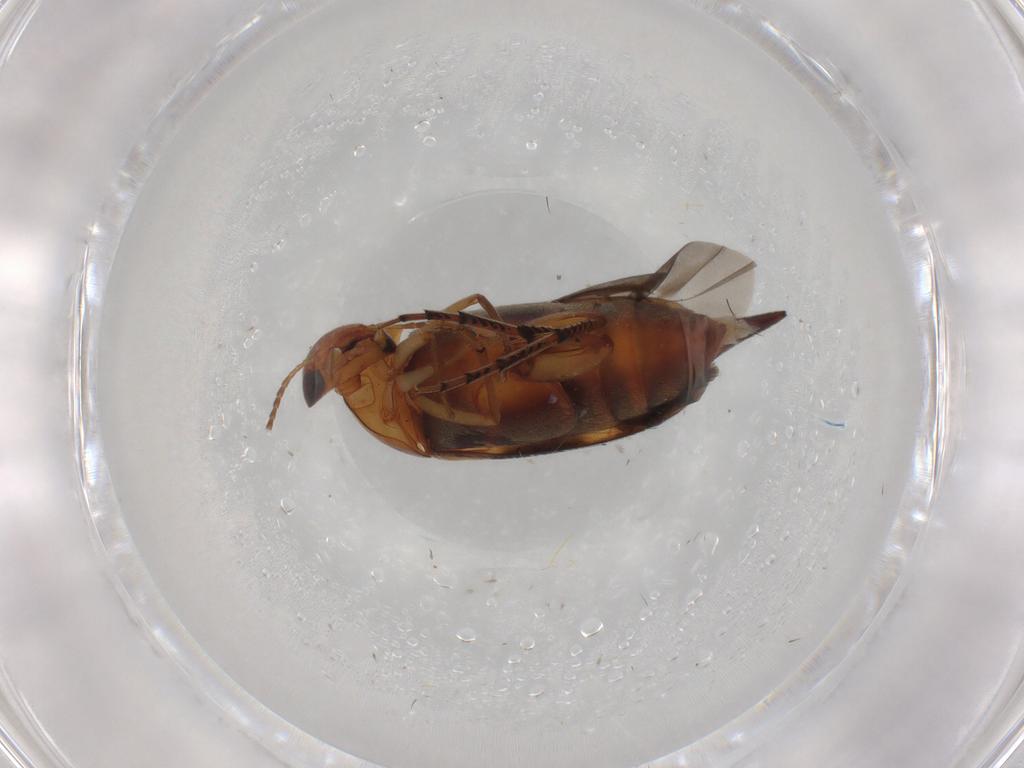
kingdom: Animalia
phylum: Arthropoda
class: Insecta
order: Coleoptera
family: Mordellidae
